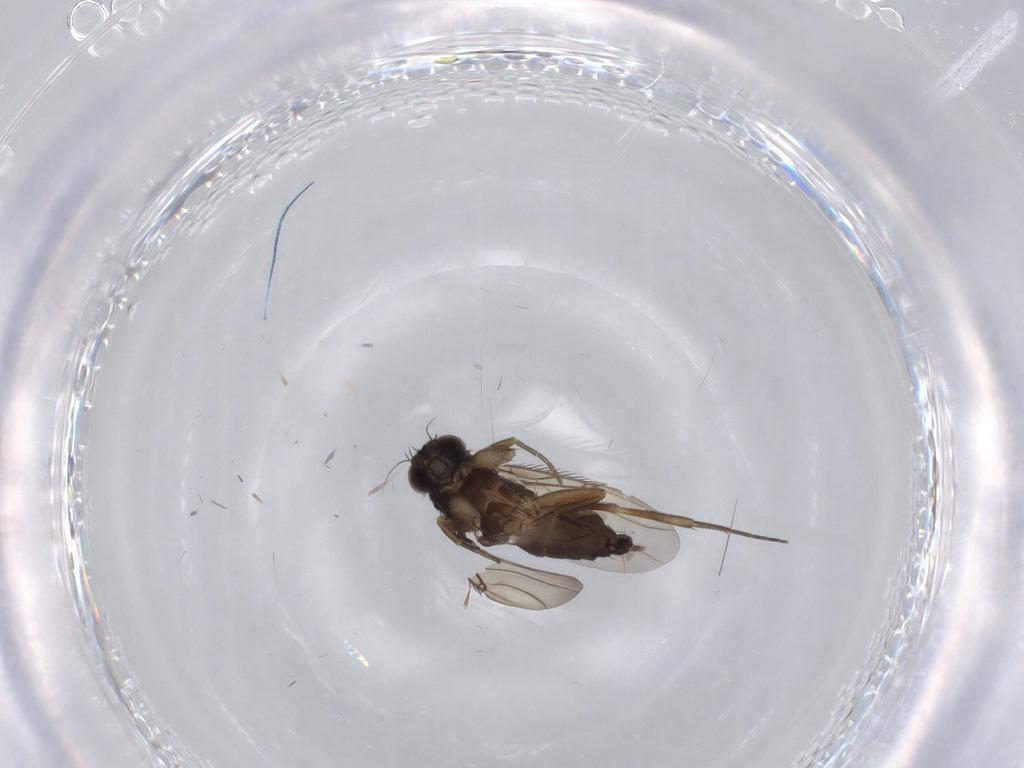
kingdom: Animalia
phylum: Arthropoda
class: Insecta
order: Diptera
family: Phoridae
